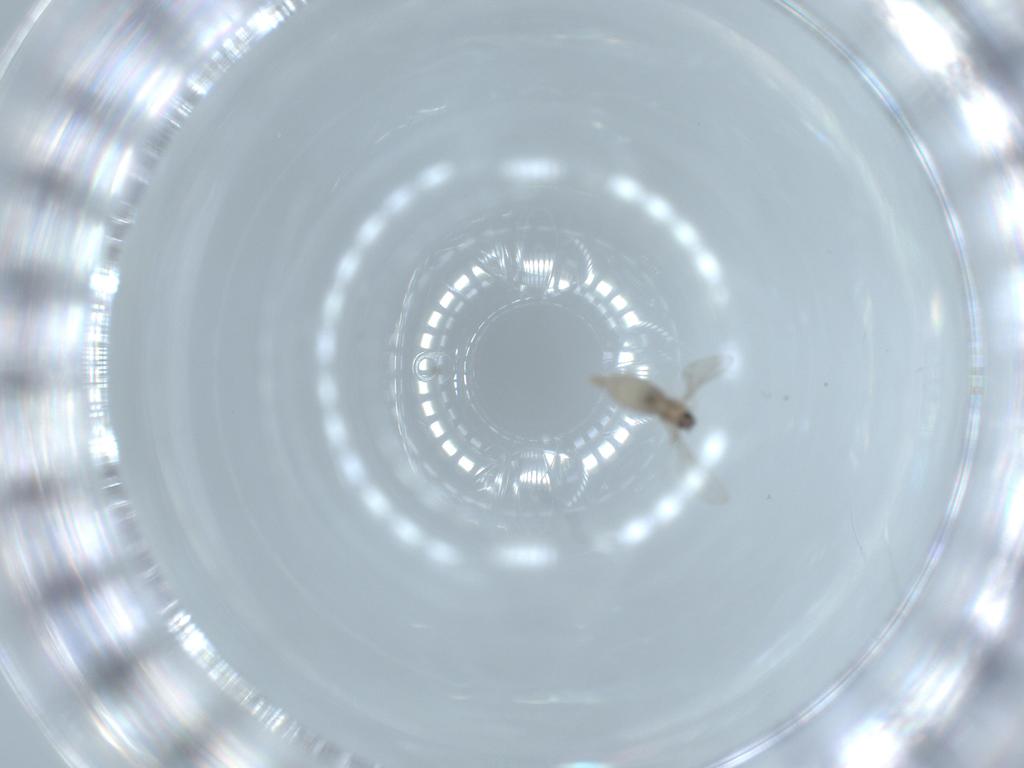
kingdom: Animalia
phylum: Arthropoda
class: Insecta
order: Diptera
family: Cecidomyiidae
